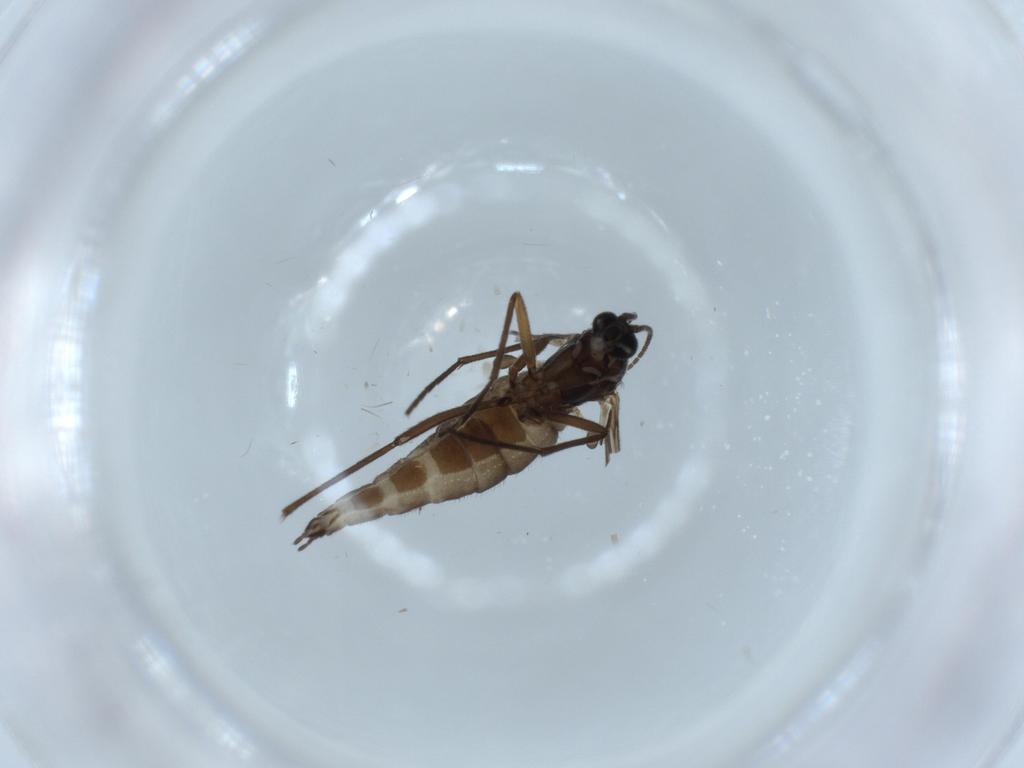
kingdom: Animalia
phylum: Arthropoda
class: Insecta
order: Diptera
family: Sciaridae
